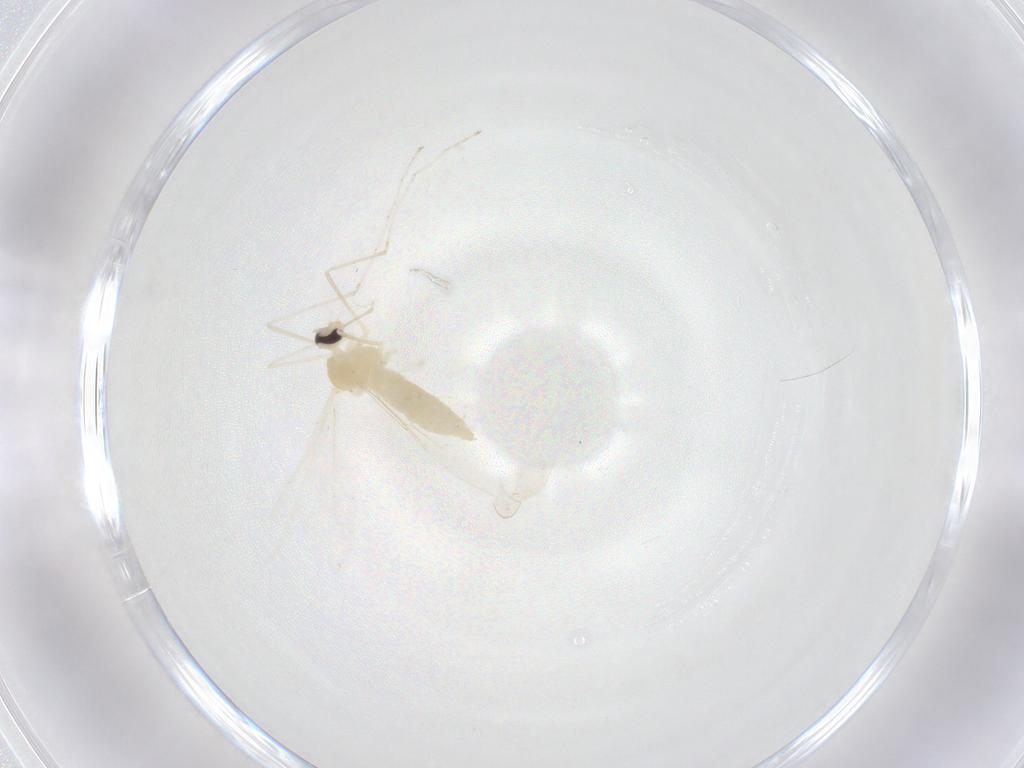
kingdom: Animalia
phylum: Arthropoda
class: Insecta
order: Diptera
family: Cecidomyiidae
